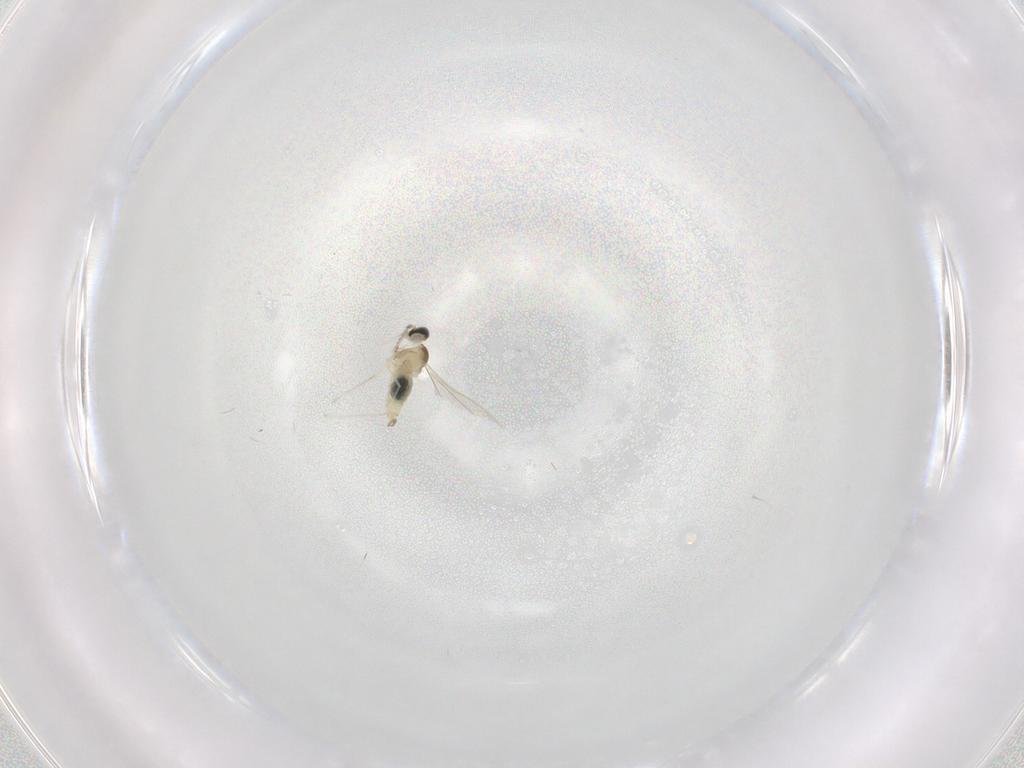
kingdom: Animalia
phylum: Arthropoda
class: Insecta
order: Diptera
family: Cecidomyiidae
